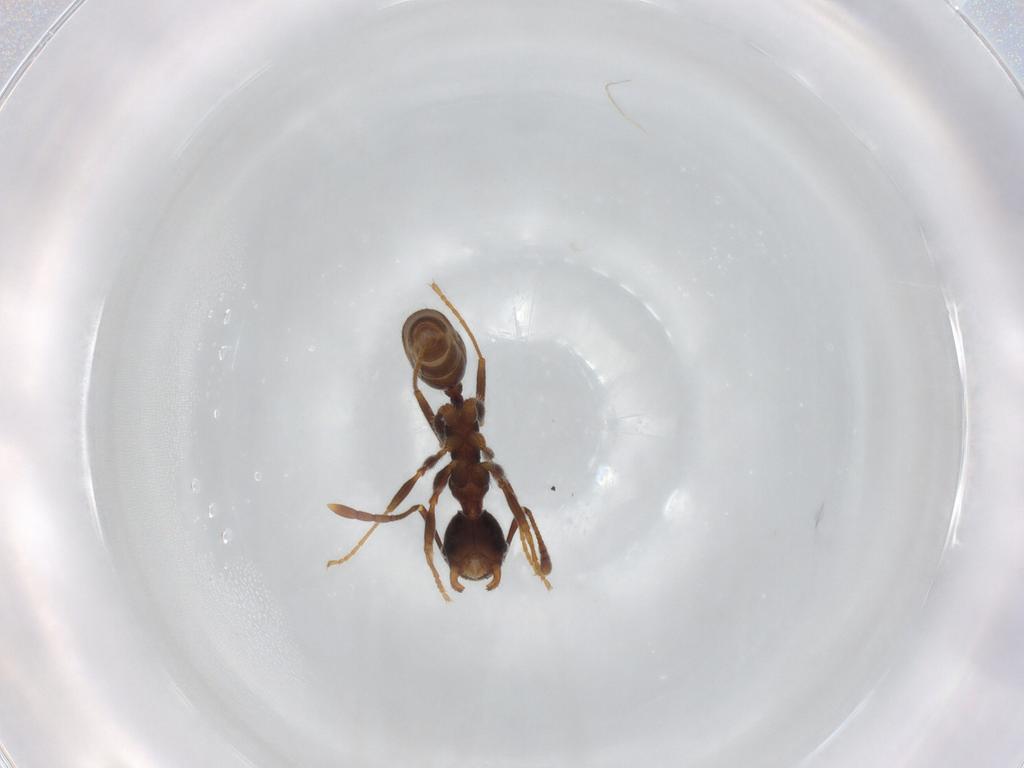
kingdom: Animalia
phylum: Arthropoda
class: Insecta
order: Hymenoptera
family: Formicidae
